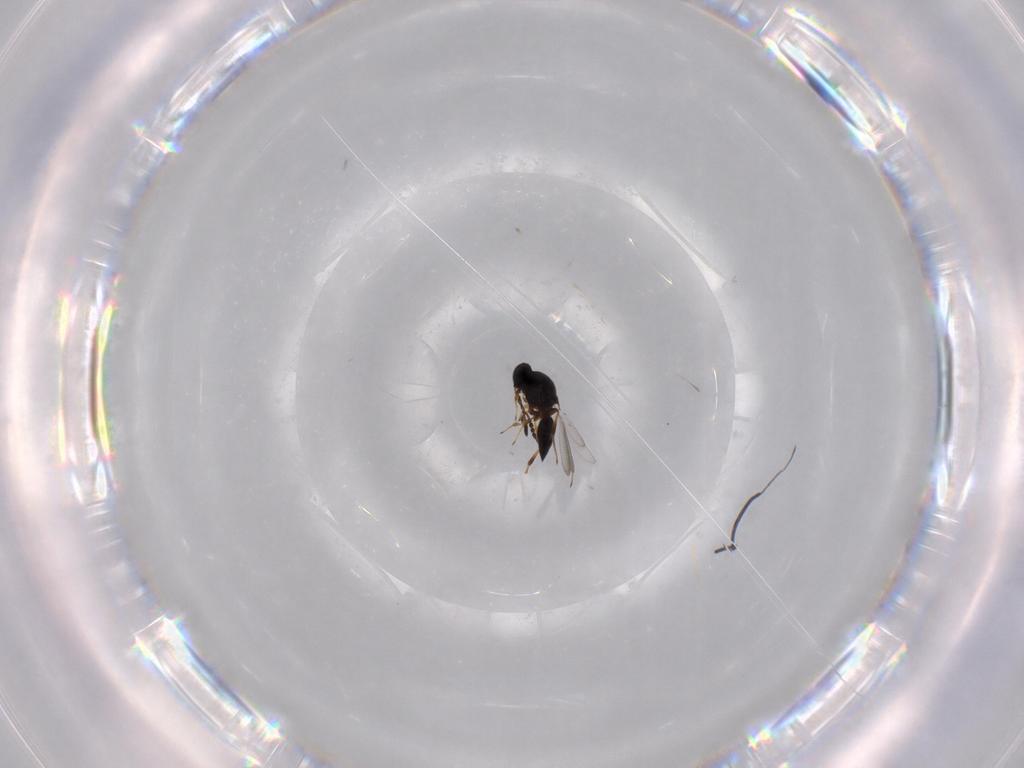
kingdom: Animalia
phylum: Arthropoda
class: Insecta
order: Hymenoptera
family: Platygastridae
